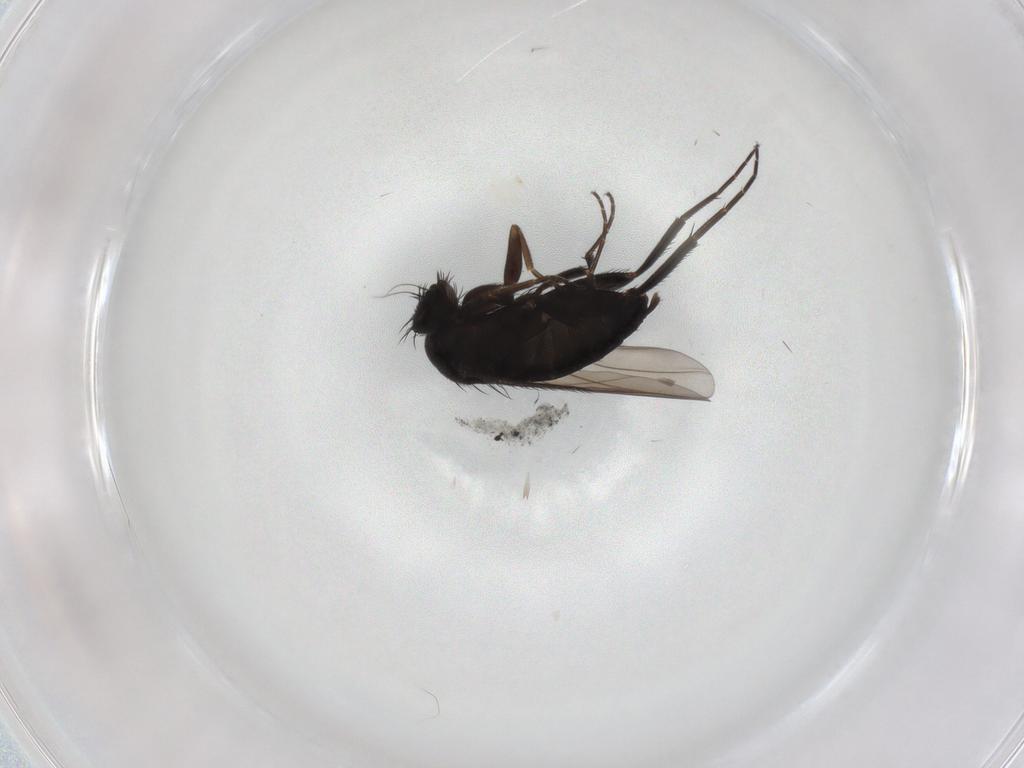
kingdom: Animalia
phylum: Arthropoda
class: Insecta
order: Diptera
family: Phoridae
